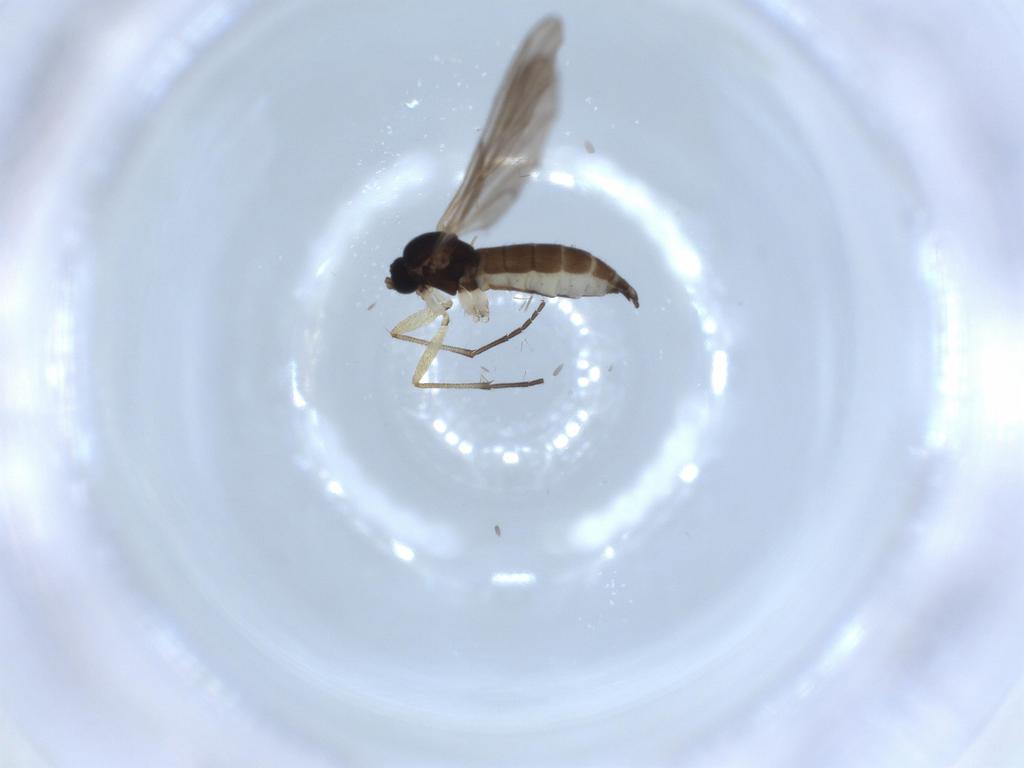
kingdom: Animalia
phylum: Arthropoda
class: Insecta
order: Diptera
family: Sciaridae
